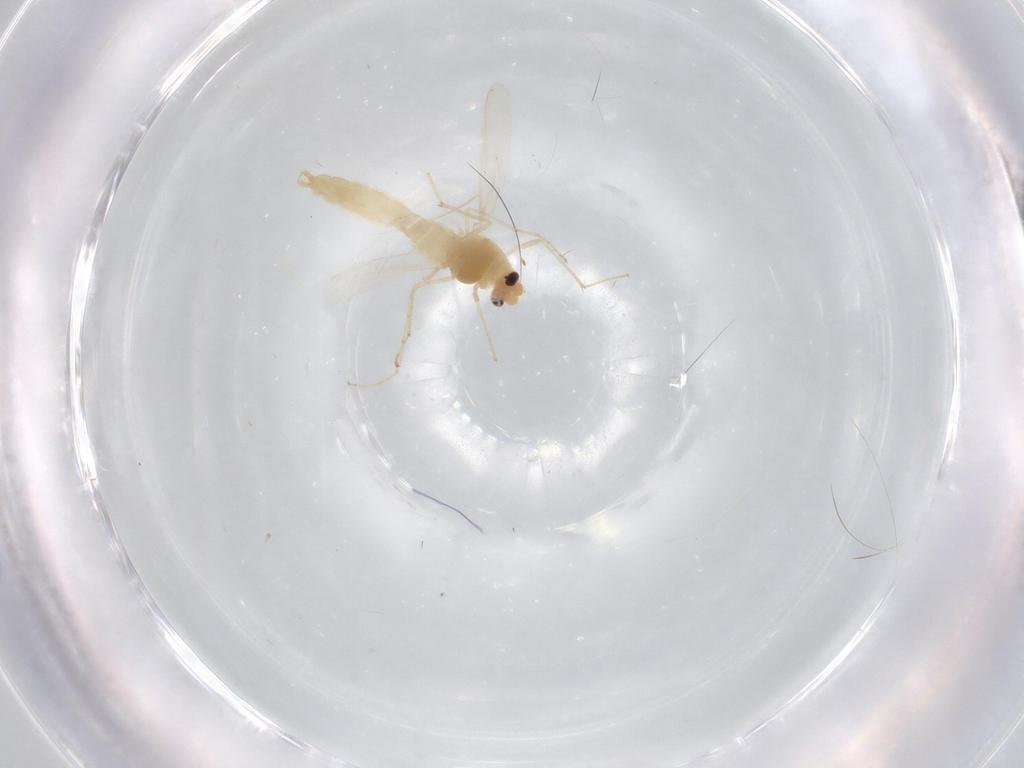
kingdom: Animalia
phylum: Arthropoda
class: Insecta
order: Diptera
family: Chironomidae
